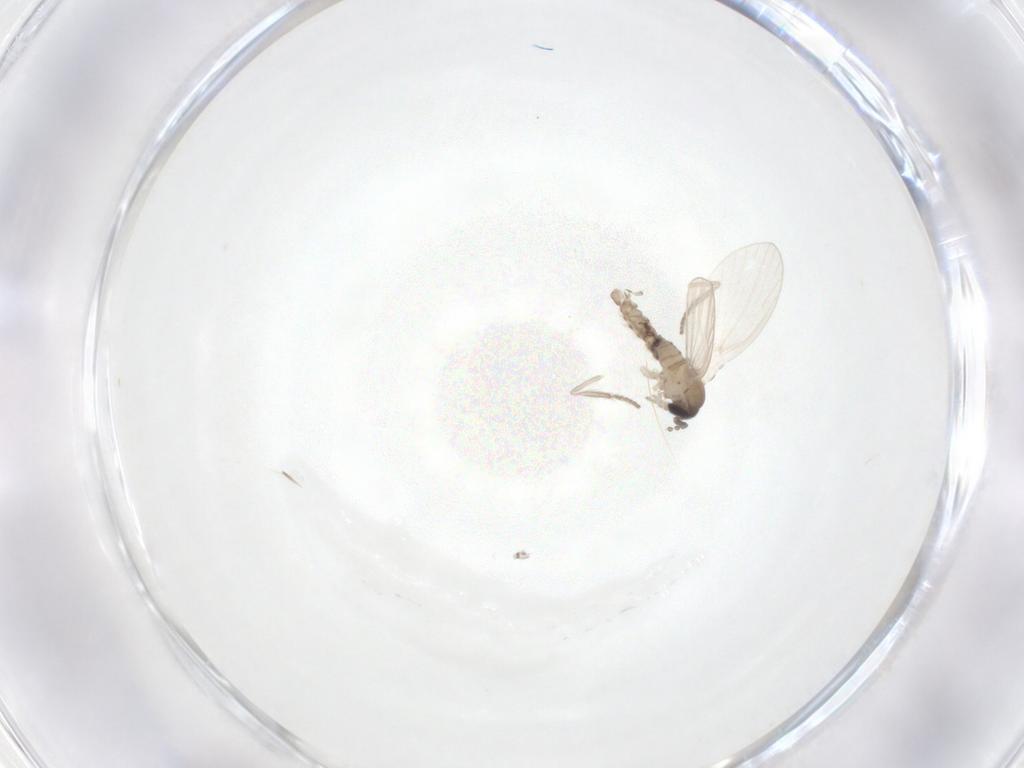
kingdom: Animalia
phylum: Arthropoda
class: Insecta
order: Diptera
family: Psychodidae
